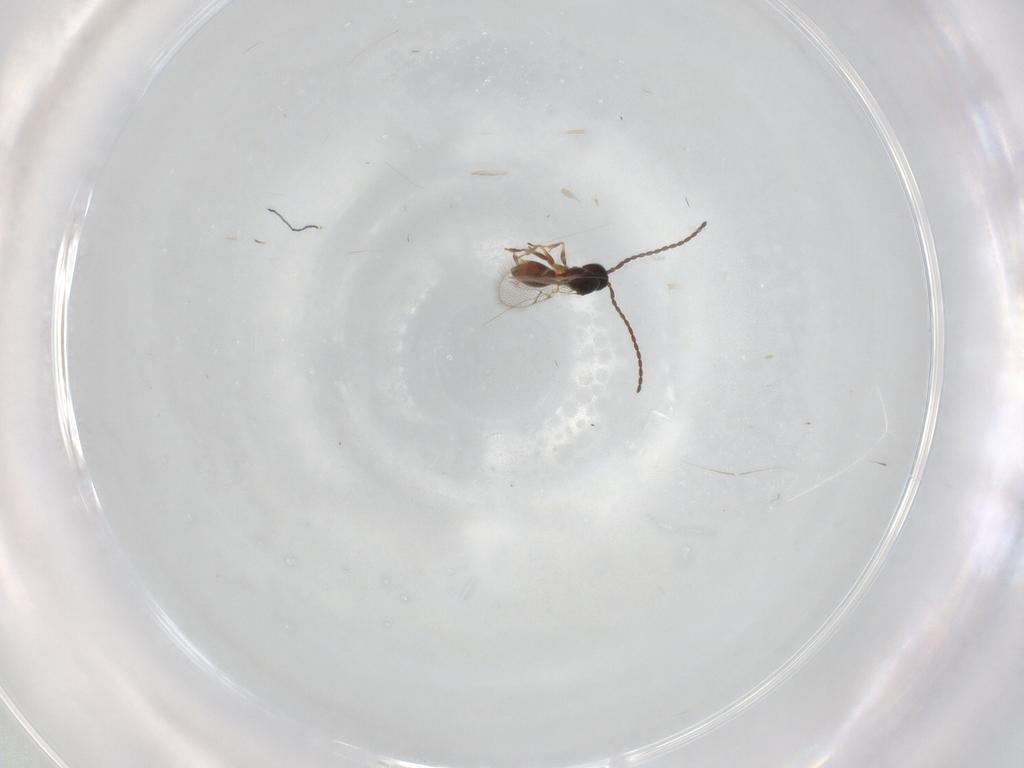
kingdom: Animalia
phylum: Arthropoda
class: Insecta
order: Hymenoptera
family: Figitidae
